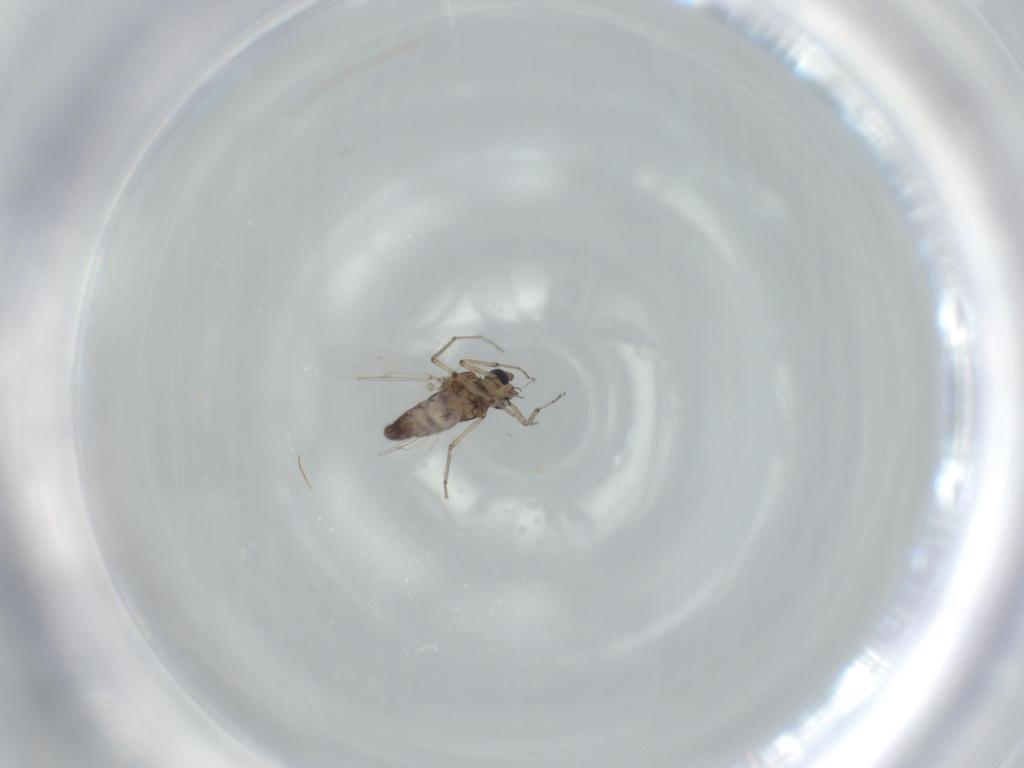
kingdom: Animalia
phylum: Arthropoda
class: Insecta
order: Diptera
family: Ceratopogonidae
